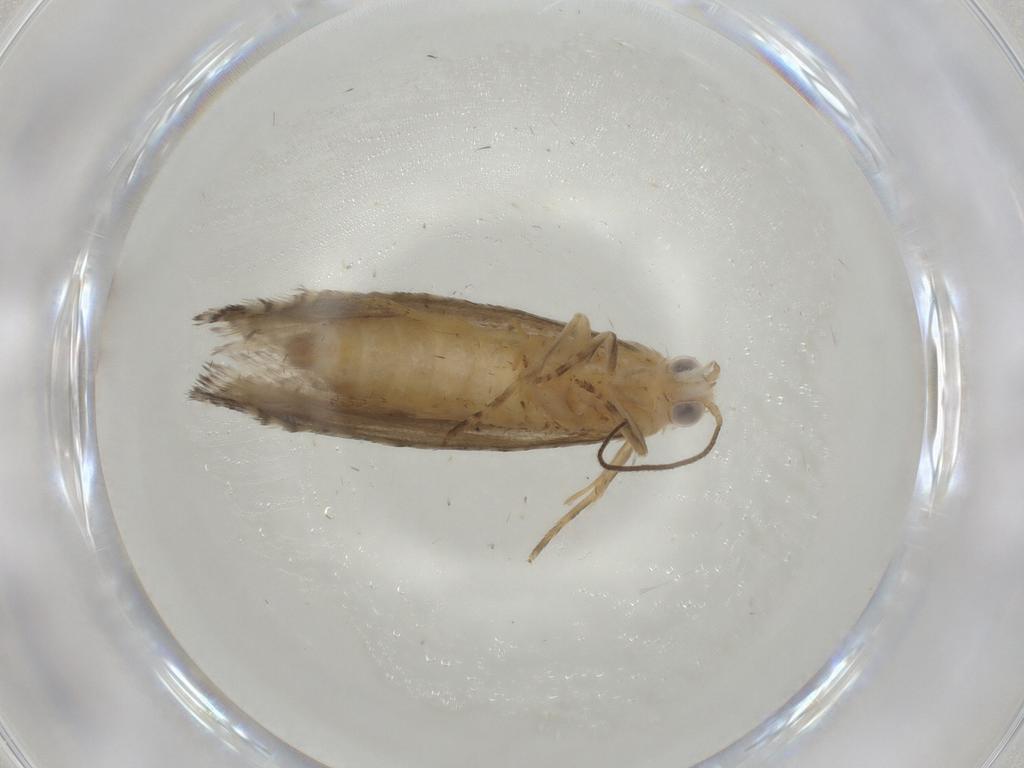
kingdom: Animalia
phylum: Arthropoda
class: Insecta
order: Lepidoptera
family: Tortricidae
